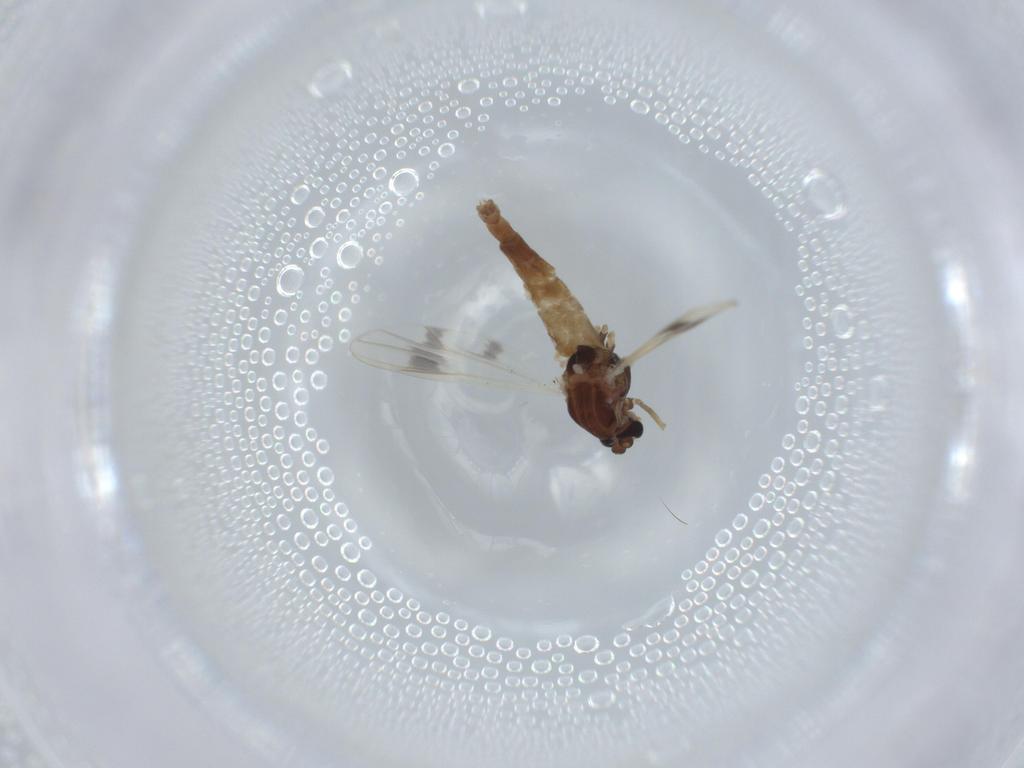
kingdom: Animalia
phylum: Arthropoda
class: Insecta
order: Diptera
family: Chironomidae
